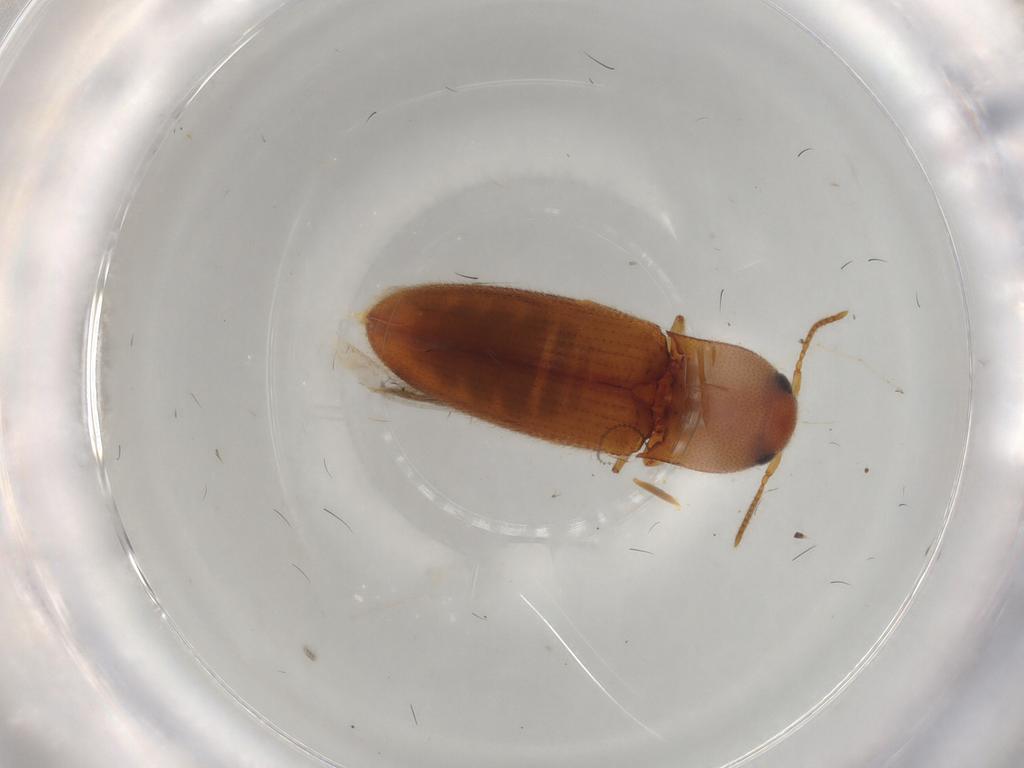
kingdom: Animalia
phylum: Arthropoda
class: Insecta
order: Coleoptera
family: Elateridae
